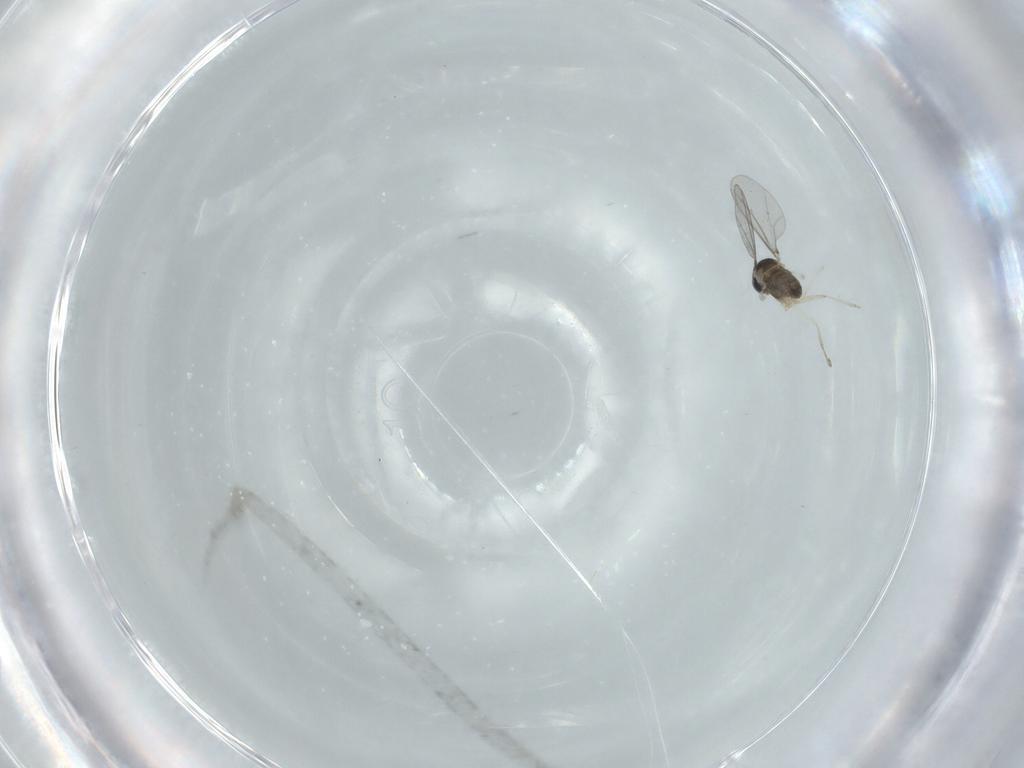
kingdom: Animalia
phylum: Arthropoda
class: Insecta
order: Diptera
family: Cecidomyiidae
